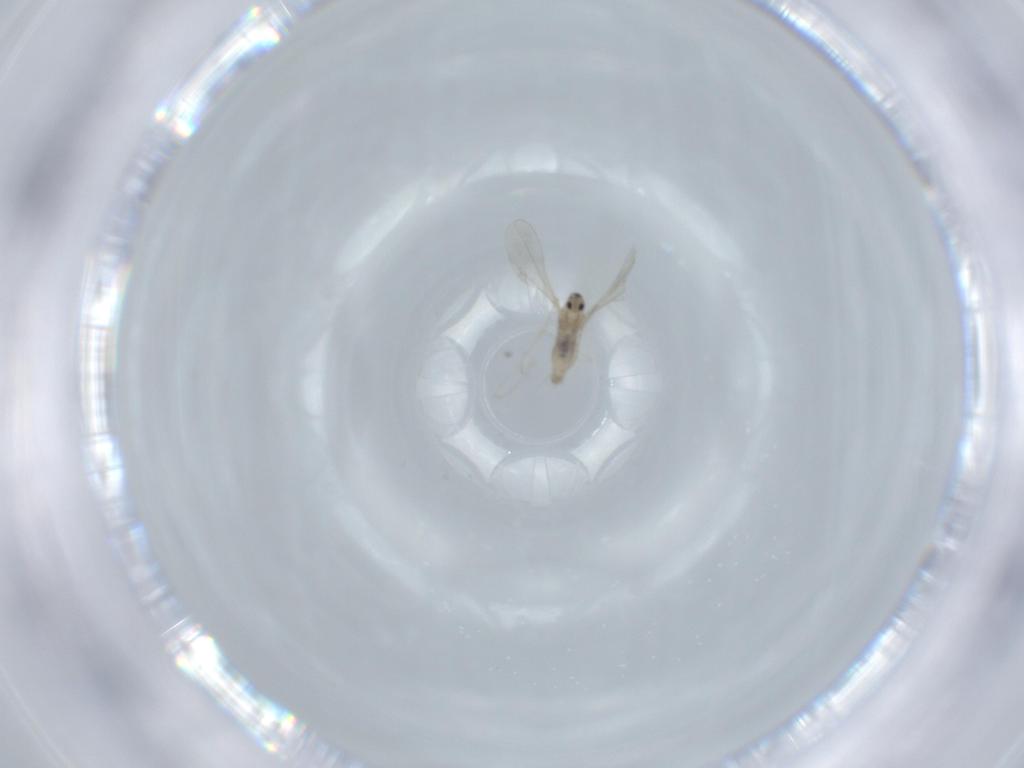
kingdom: Animalia
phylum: Arthropoda
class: Insecta
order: Diptera
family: Cecidomyiidae
